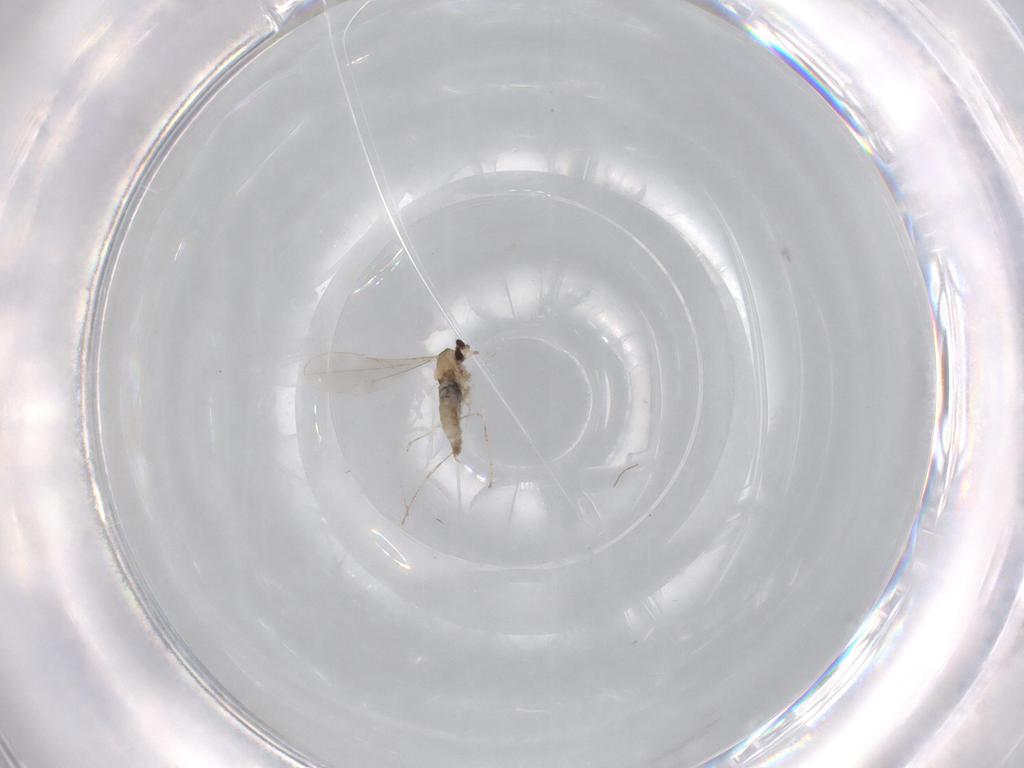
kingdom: Animalia
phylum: Arthropoda
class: Insecta
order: Diptera
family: Cecidomyiidae
